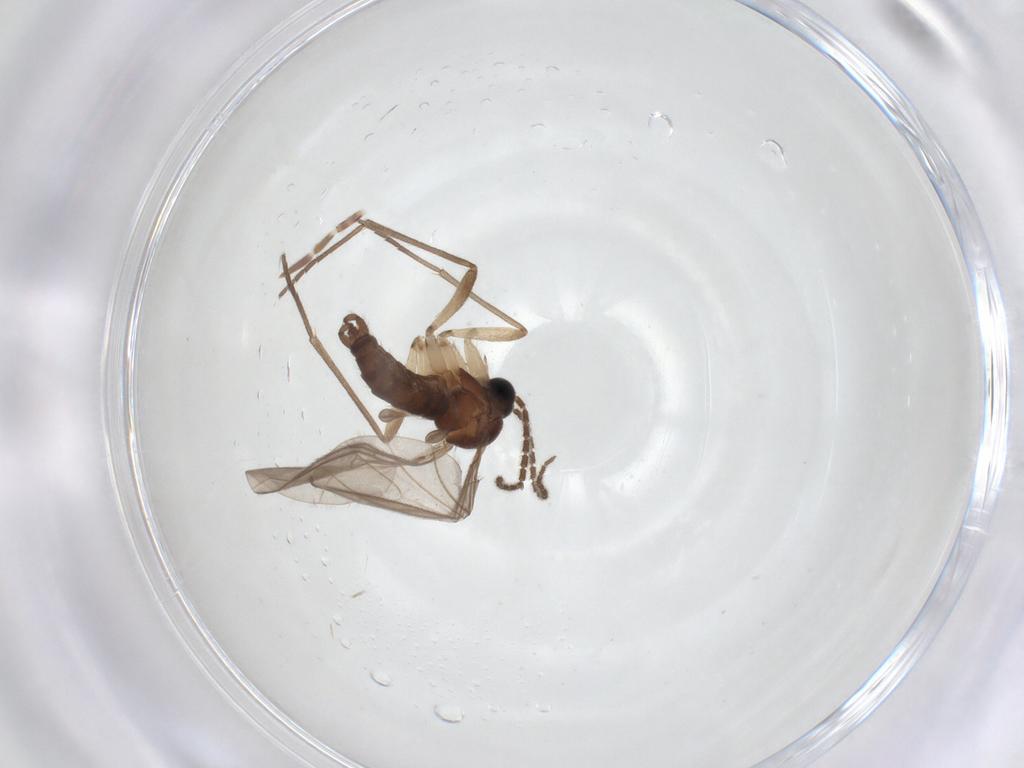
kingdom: Animalia
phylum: Arthropoda
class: Insecta
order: Diptera
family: Sciaridae
